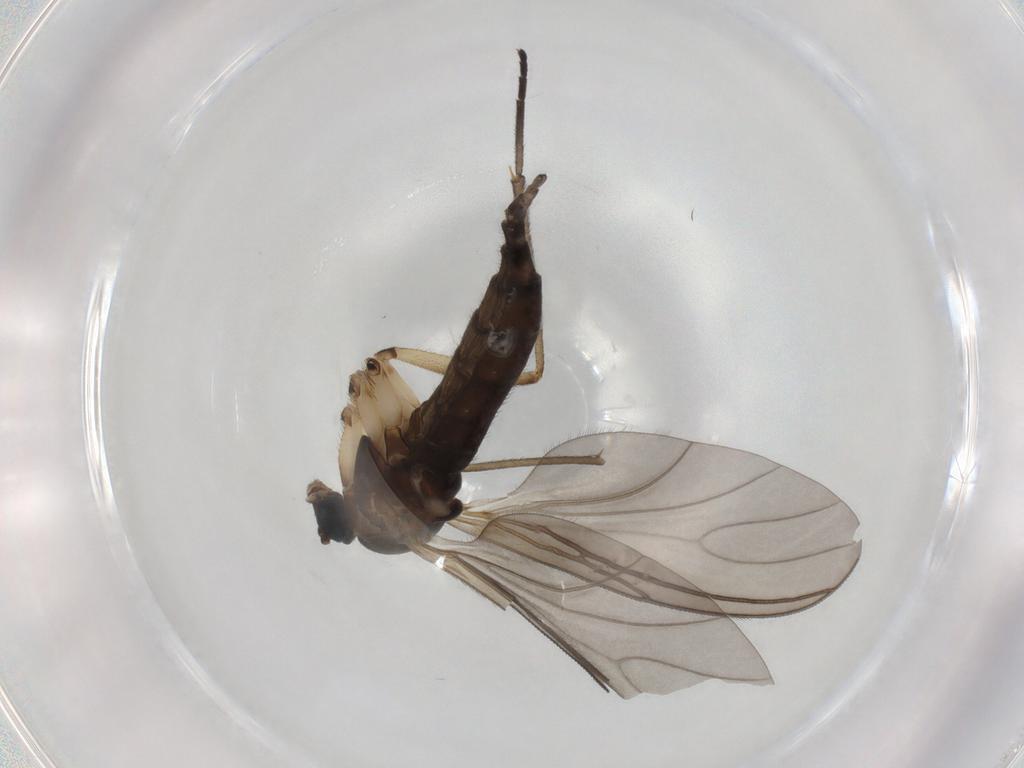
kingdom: Animalia
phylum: Arthropoda
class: Insecta
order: Diptera
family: Sciaridae
